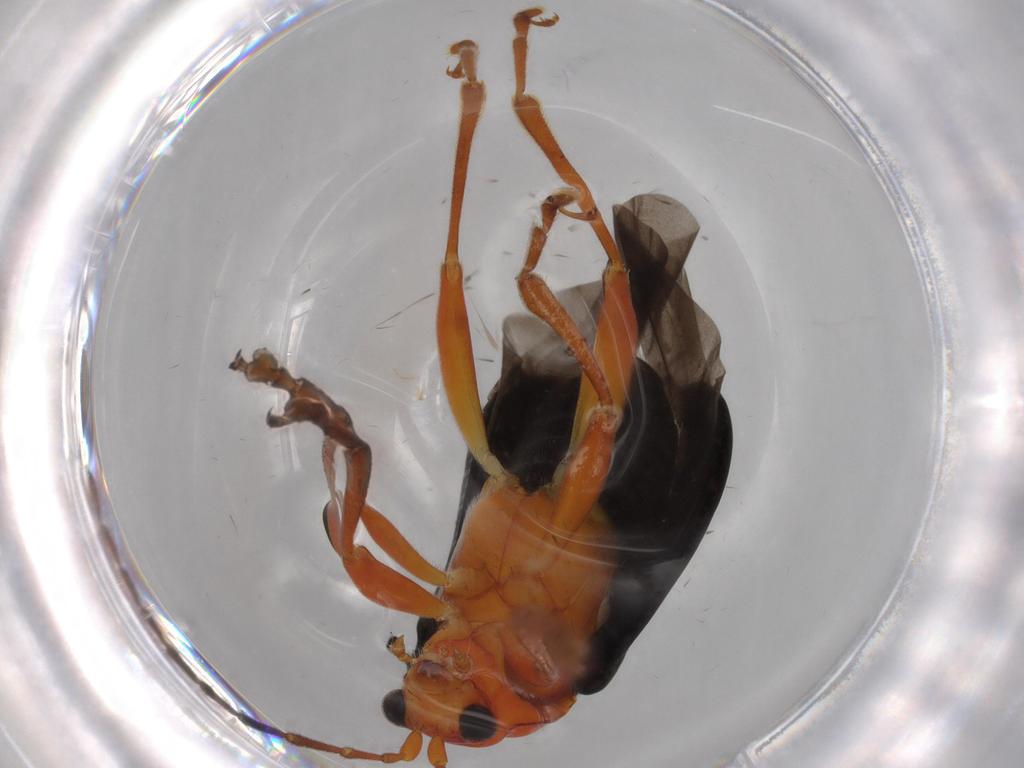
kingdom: Animalia
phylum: Arthropoda
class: Insecta
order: Coleoptera
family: Chrysomelidae
